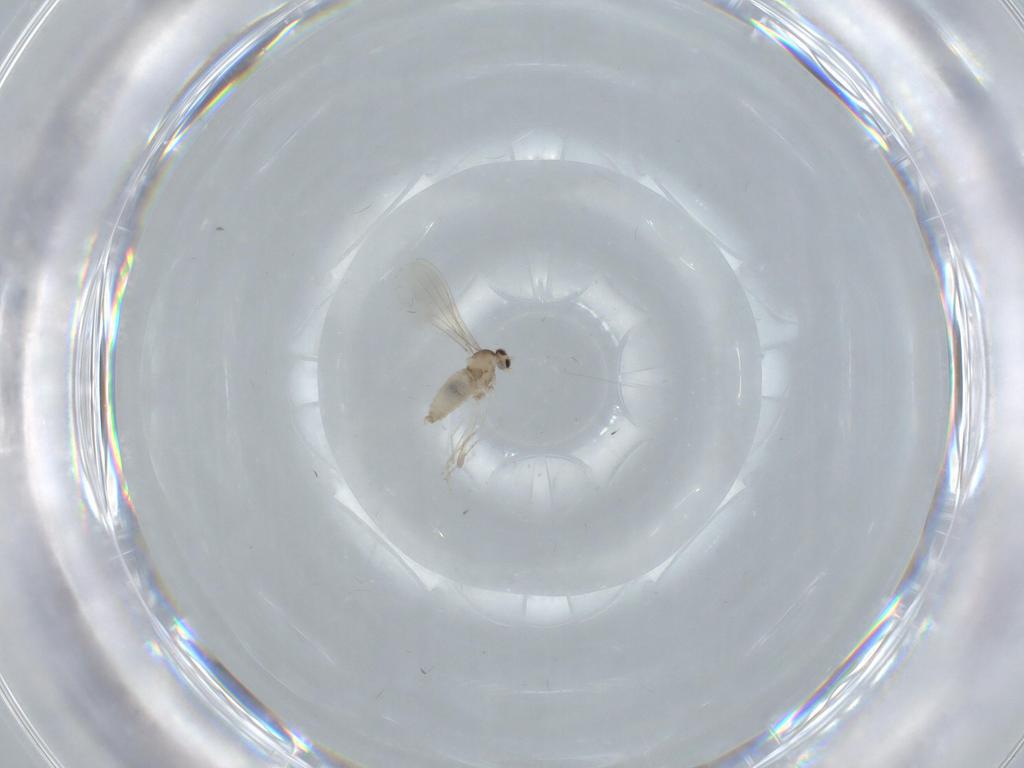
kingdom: Animalia
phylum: Arthropoda
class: Insecta
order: Diptera
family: Cecidomyiidae
